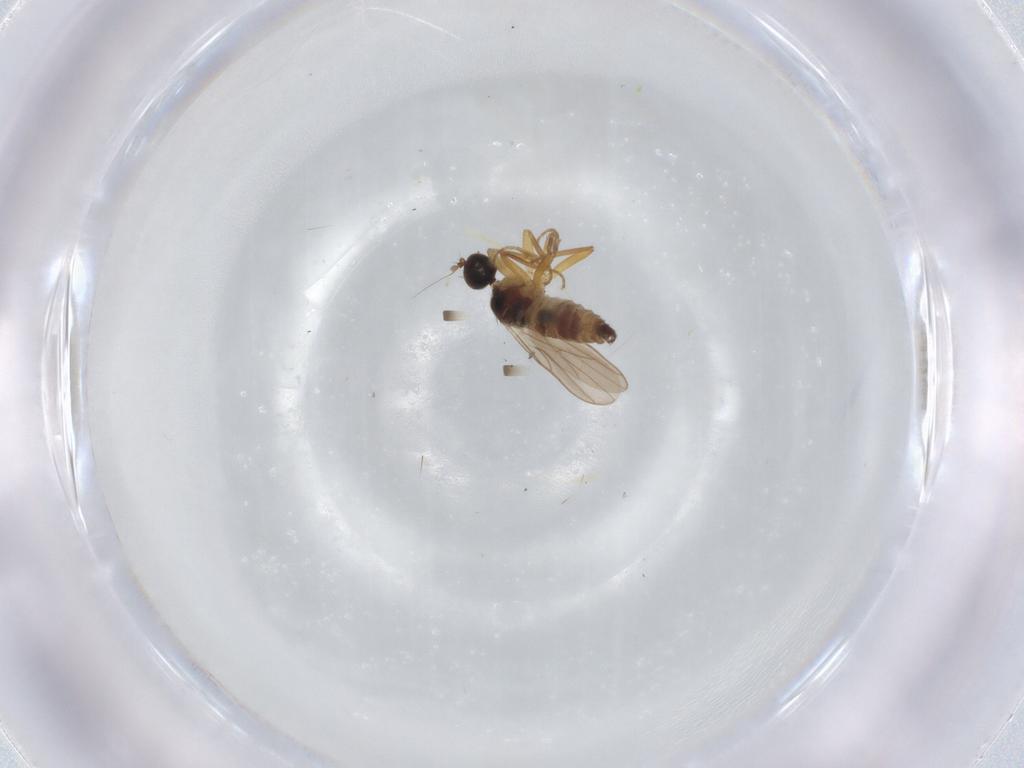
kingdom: Animalia
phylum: Arthropoda
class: Insecta
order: Diptera
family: Hybotidae
